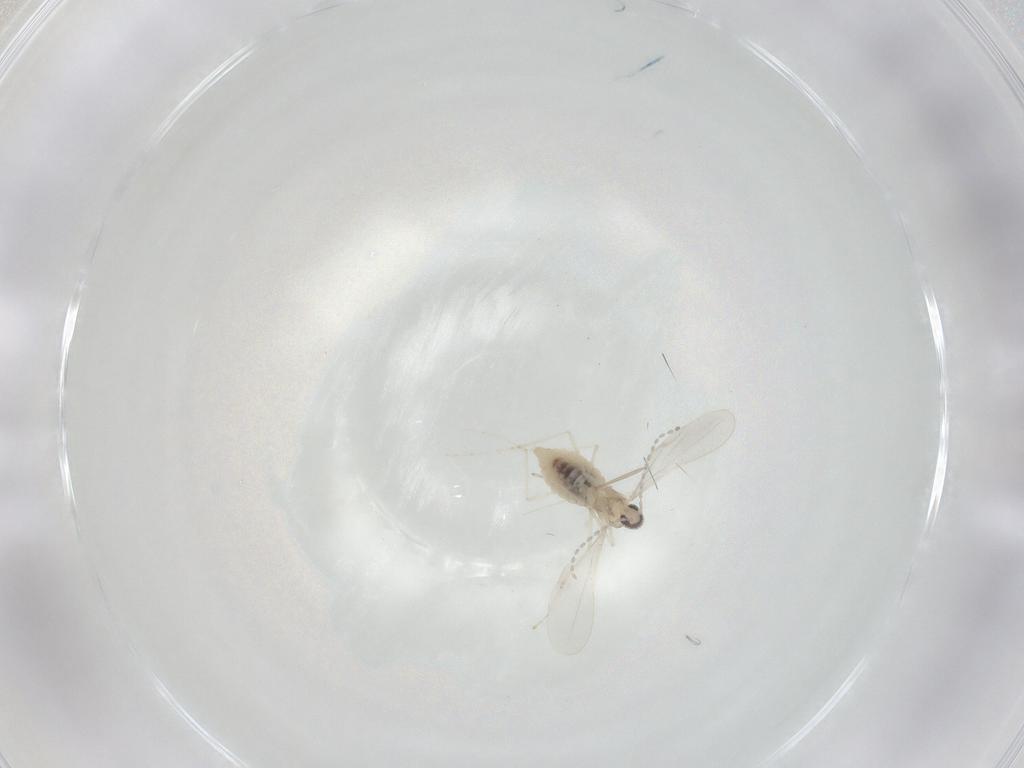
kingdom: Animalia
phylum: Arthropoda
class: Insecta
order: Diptera
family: Cecidomyiidae
